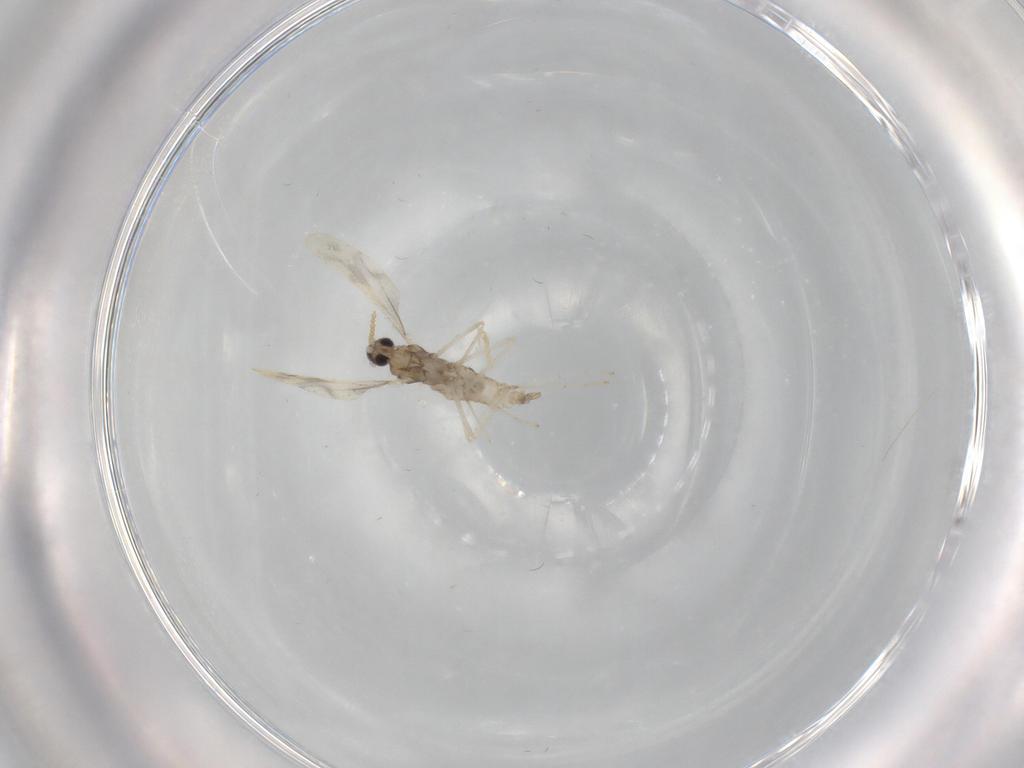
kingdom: Animalia
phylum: Arthropoda
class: Insecta
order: Diptera
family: Cecidomyiidae
